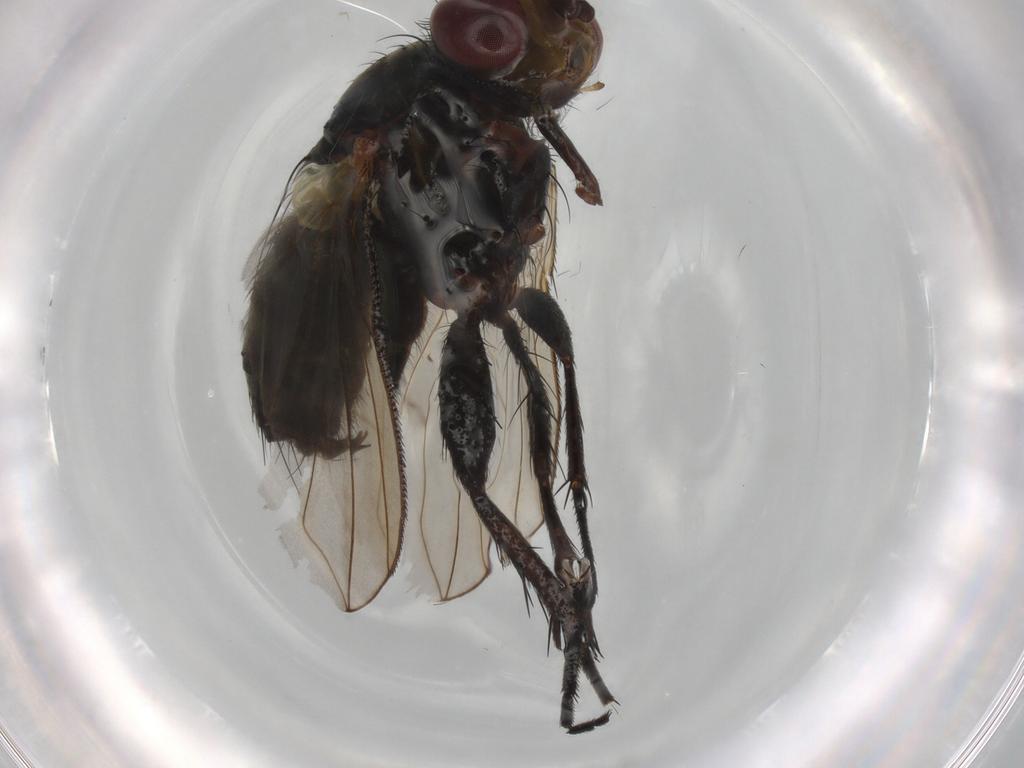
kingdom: Animalia
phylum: Arthropoda
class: Insecta
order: Diptera
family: Calliphoridae
